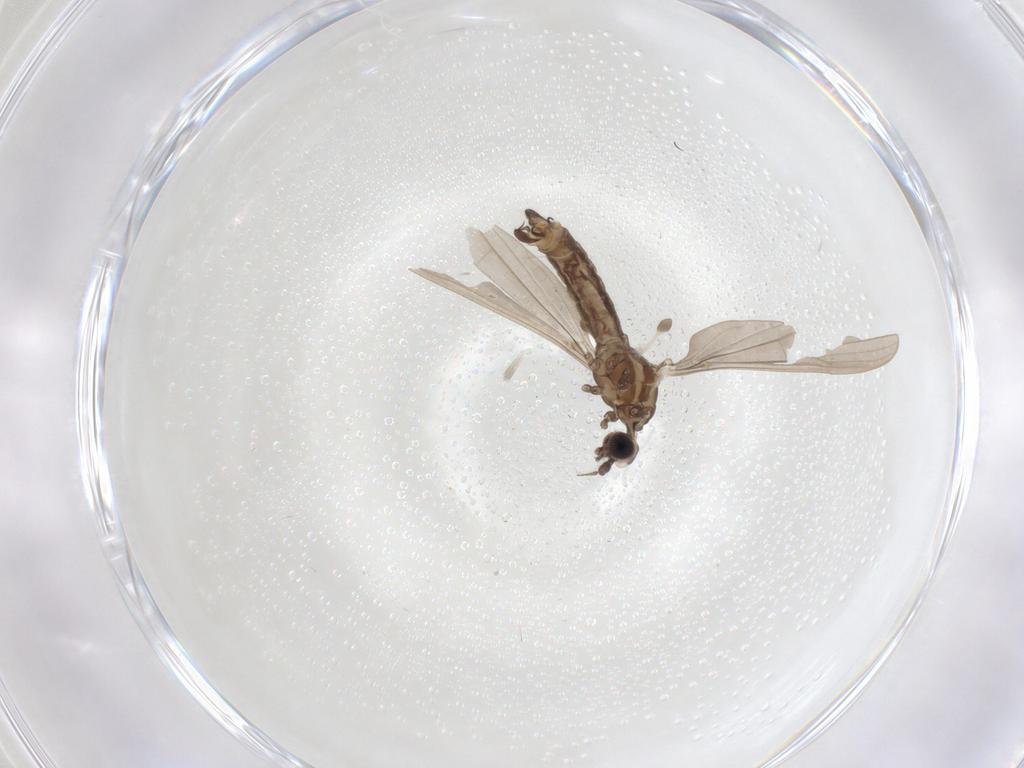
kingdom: Animalia
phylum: Arthropoda
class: Insecta
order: Diptera
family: Limoniidae
